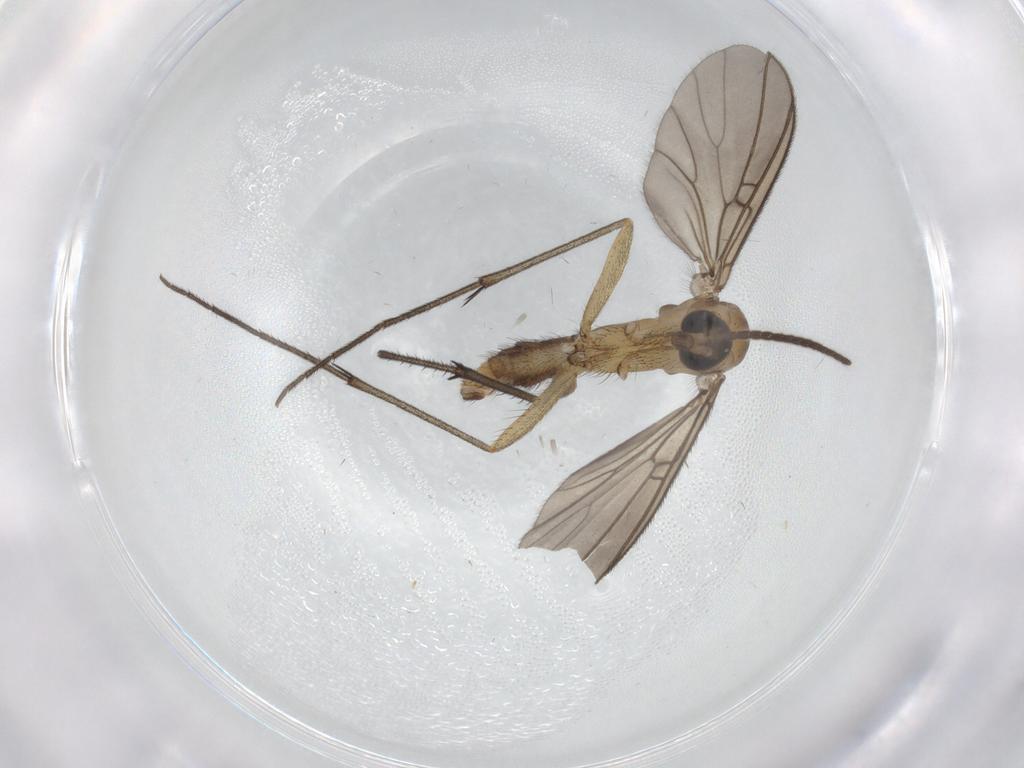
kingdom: Animalia
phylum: Arthropoda
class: Insecta
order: Diptera
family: Mycetophilidae
